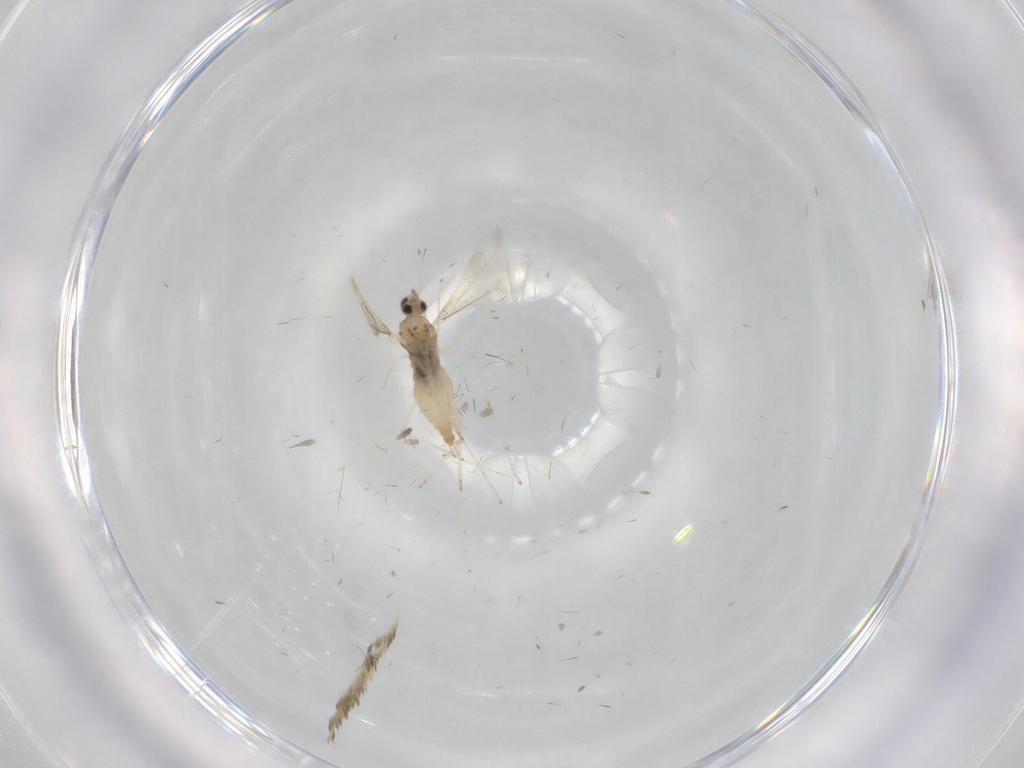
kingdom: Animalia
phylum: Arthropoda
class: Insecta
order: Diptera
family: Cecidomyiidae
